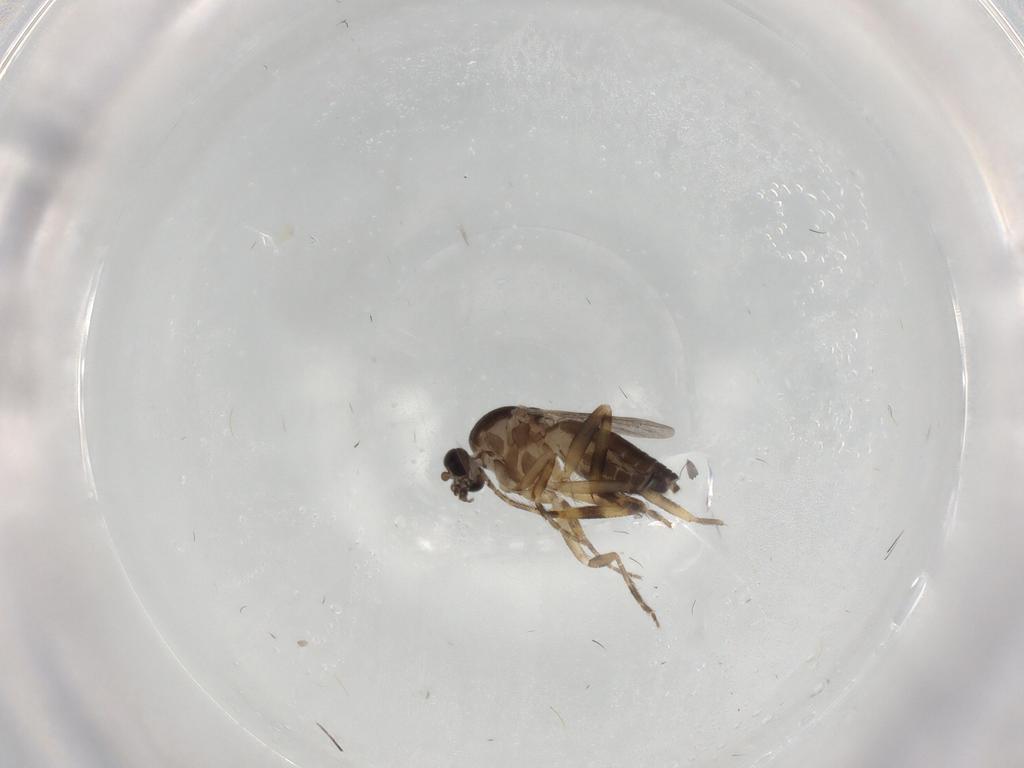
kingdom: Animalia
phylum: Arthropoda
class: Insecta
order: Diptera
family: Ceratopogonidae
